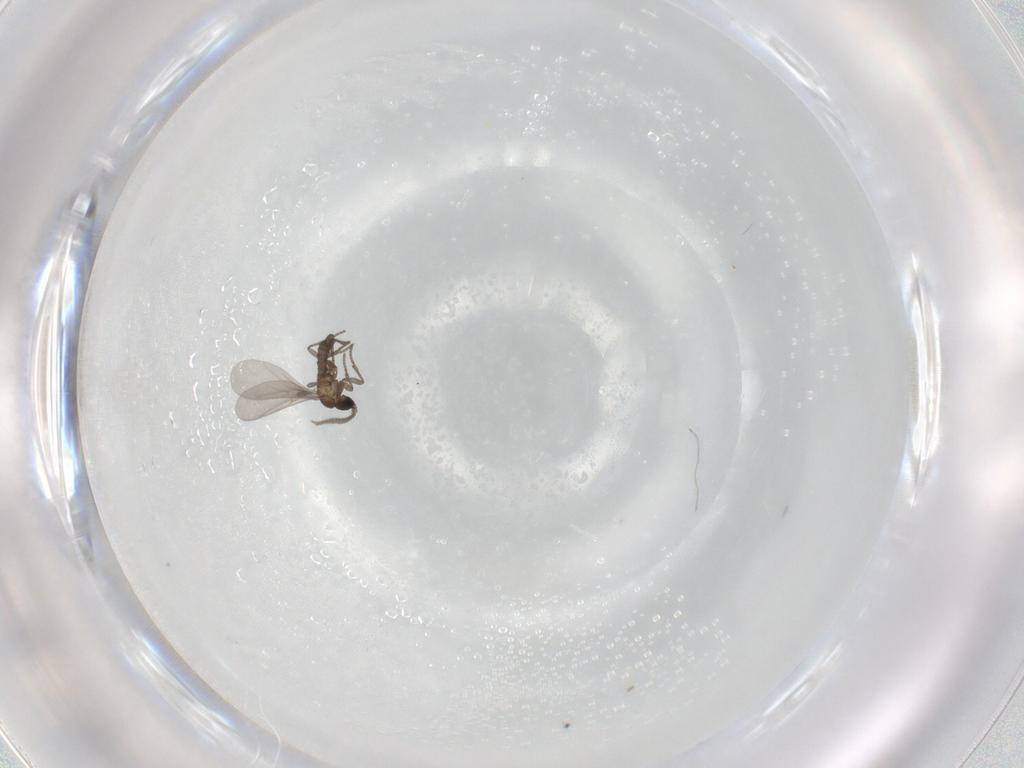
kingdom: Animalia
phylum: Arthropoda
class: Insecta
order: Diptera
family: Sciaridae
